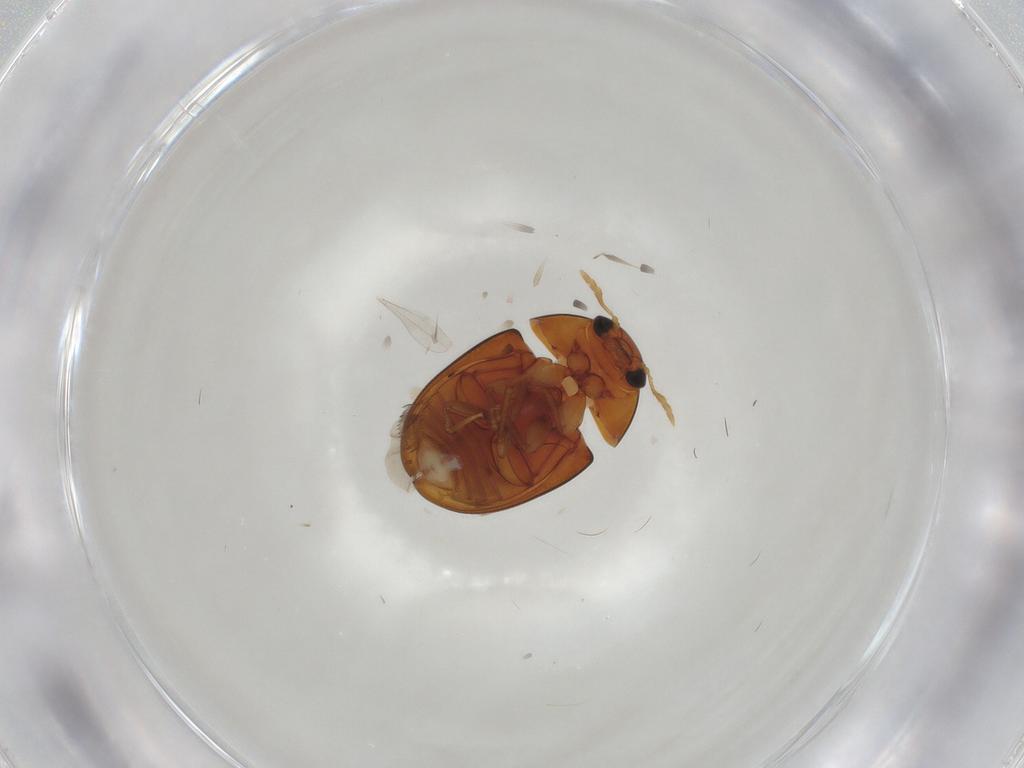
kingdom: Animalia
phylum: Arthropoda
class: Insecta
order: Coleoptera
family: Phalacridae
